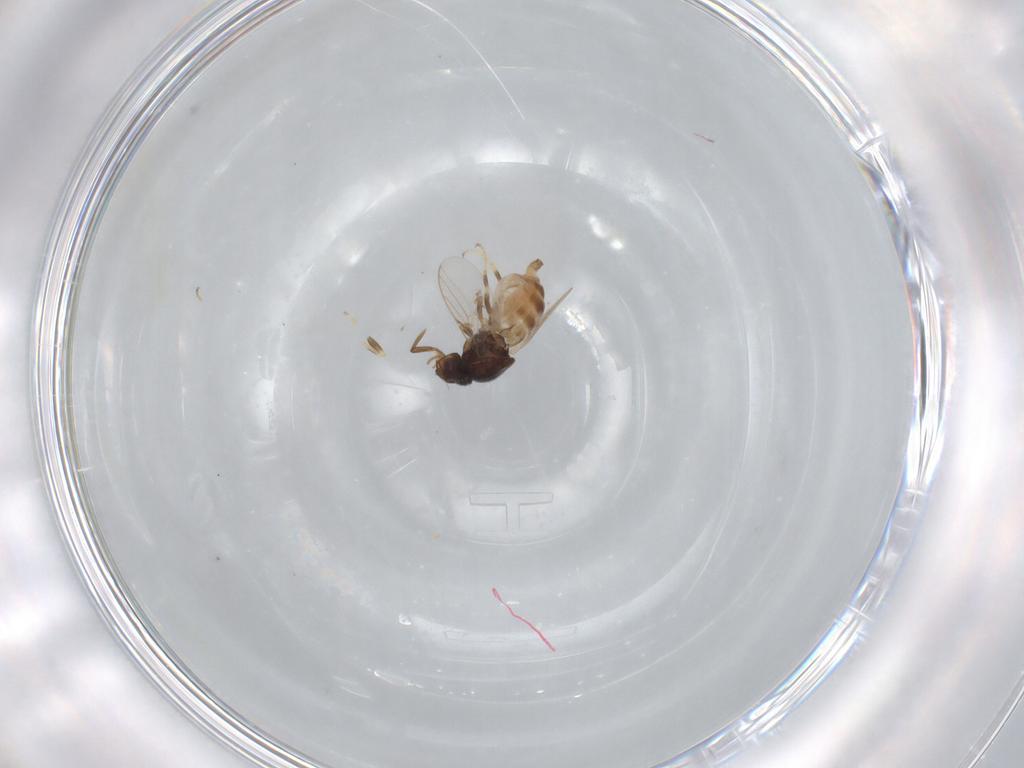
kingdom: Animalia
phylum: Arthropoda
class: Insecta
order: Diptera
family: Chloropidae
